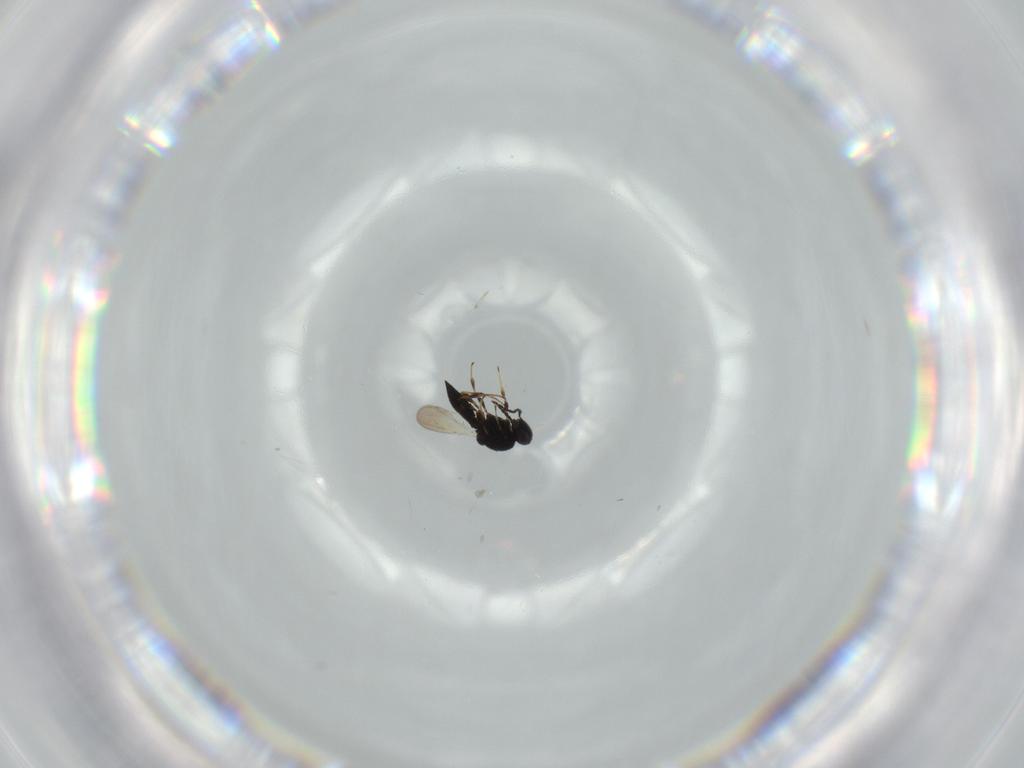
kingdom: Animalia
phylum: Arthropoda
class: Insecta
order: Hymenoptera
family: Platygastridae
